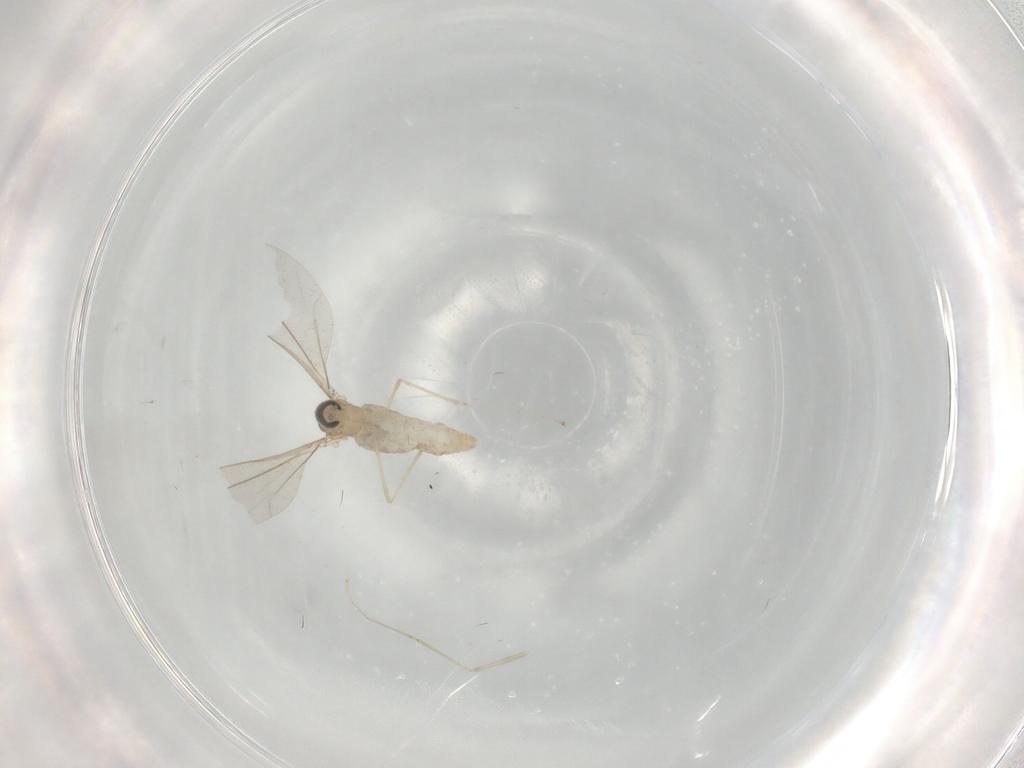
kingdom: Animalia
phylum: Arthropoda
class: Insecta
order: Diptera
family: Cecidomyiidae
